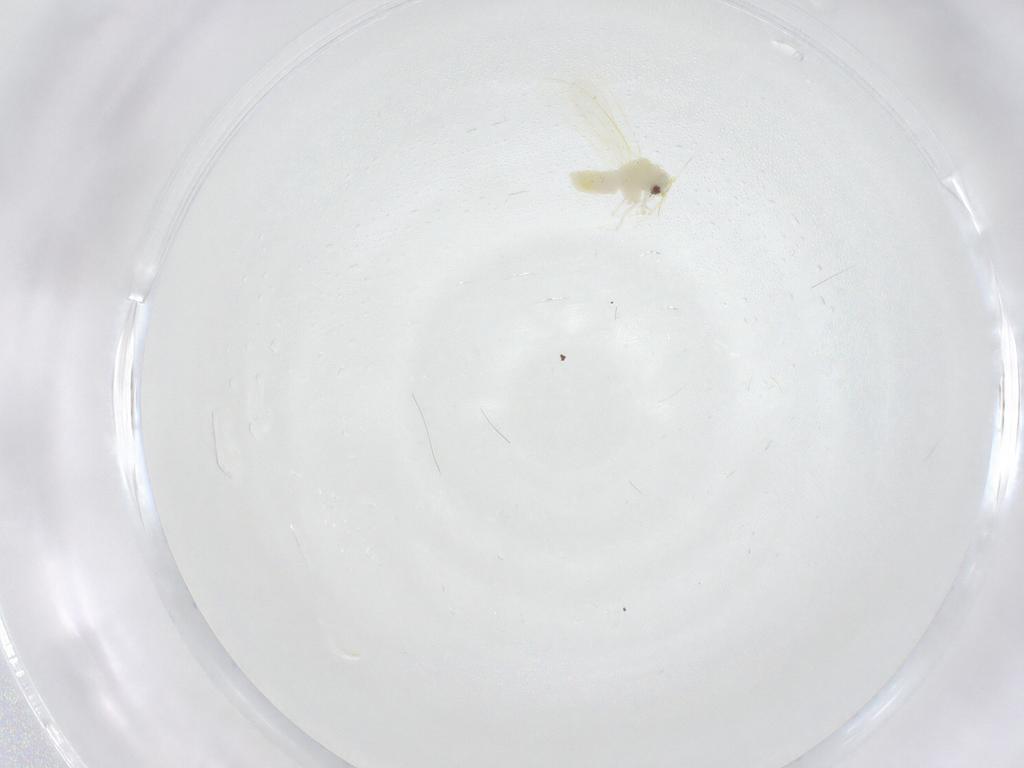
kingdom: Animalia
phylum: Arthropoda
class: Insecta
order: Hemiptera
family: Aleyrodidae
